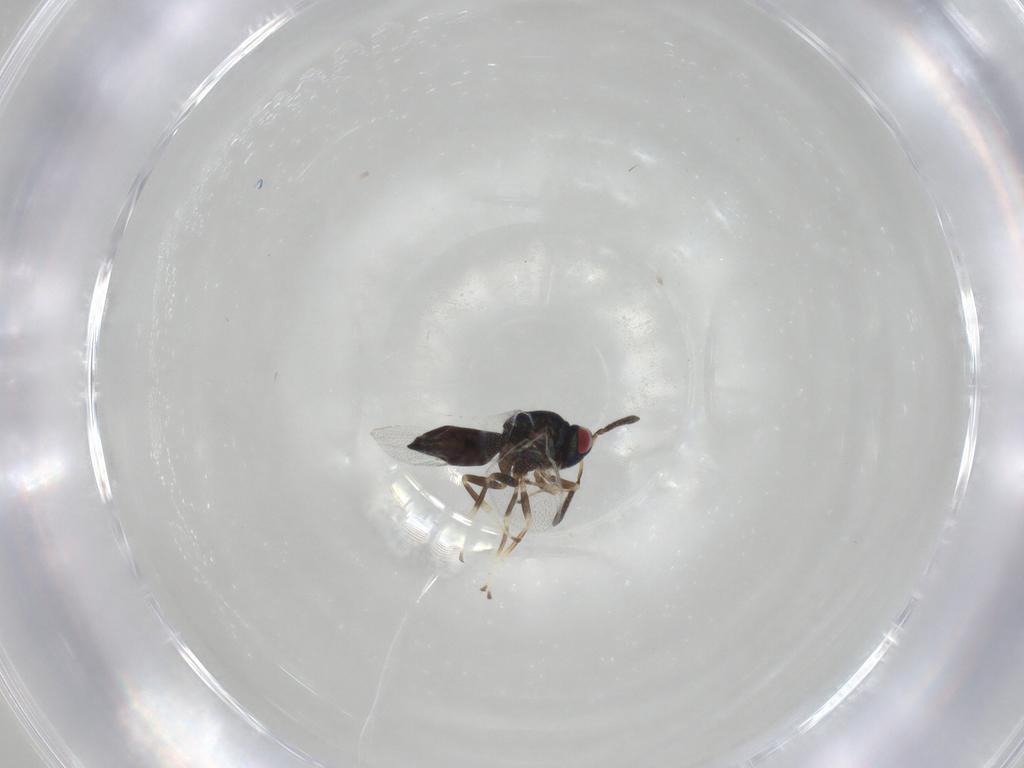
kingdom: Animalia
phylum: Arthropoda
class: Insecta
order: Hymenoptera
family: Pteromalidae
